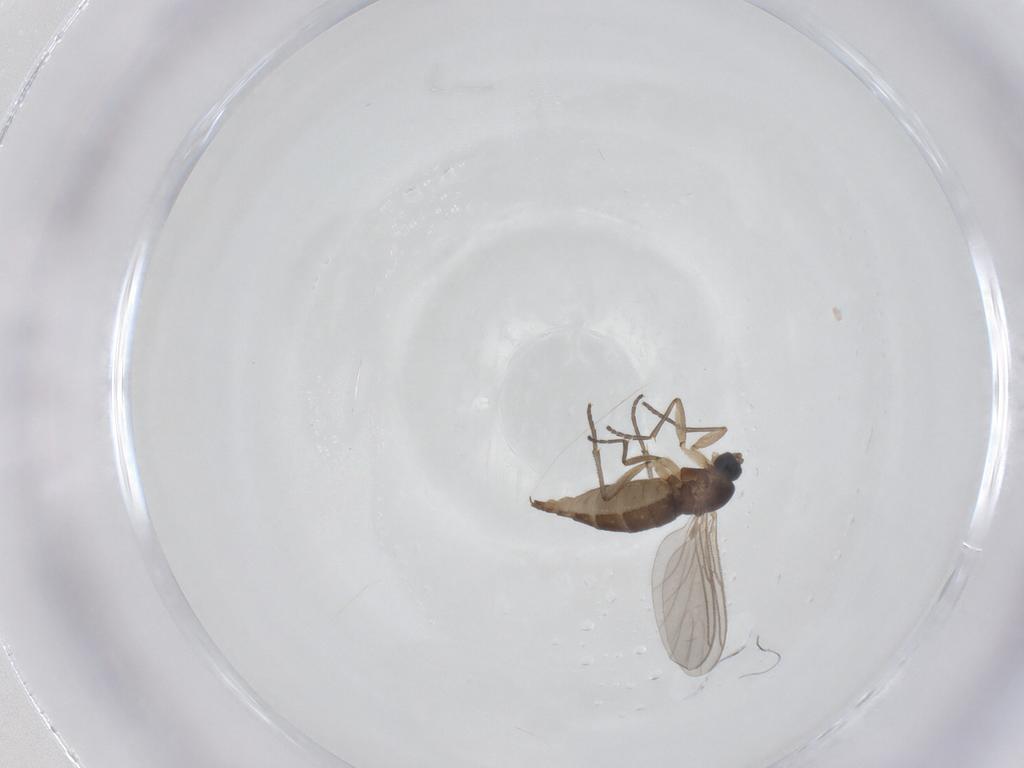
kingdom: Animalia
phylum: Arthropoda
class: Insecta
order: Diptera
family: Sciaridae
